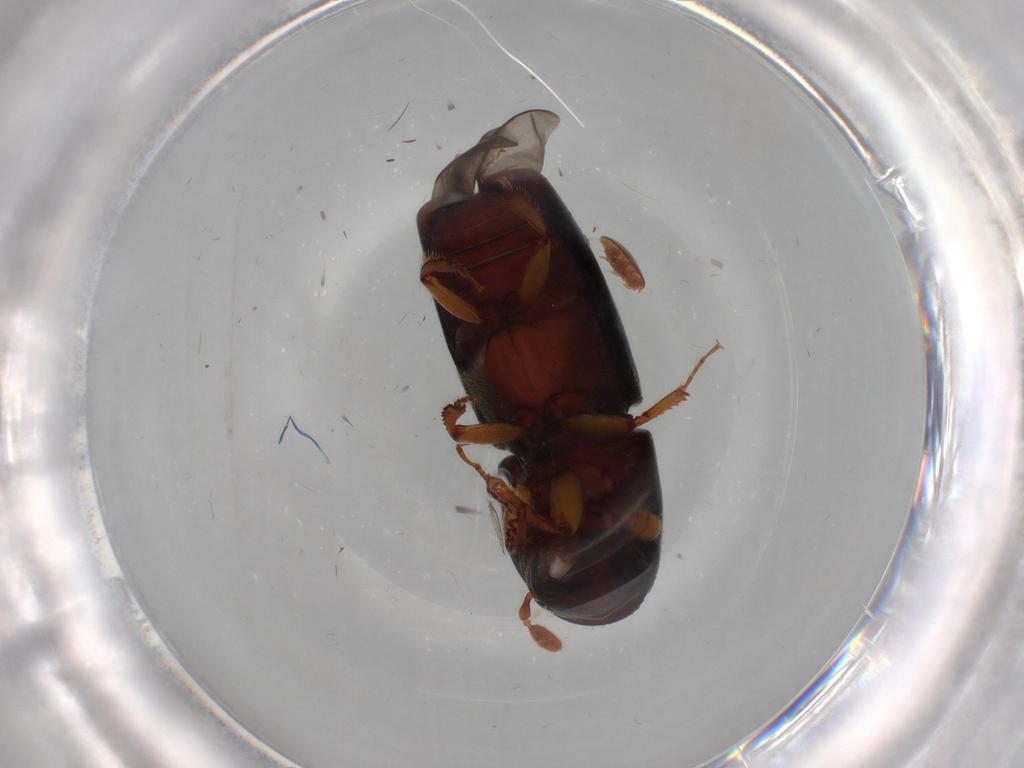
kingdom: Animalia
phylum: Arthropoda
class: Insecta
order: Coleoptera
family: Curculionidae
